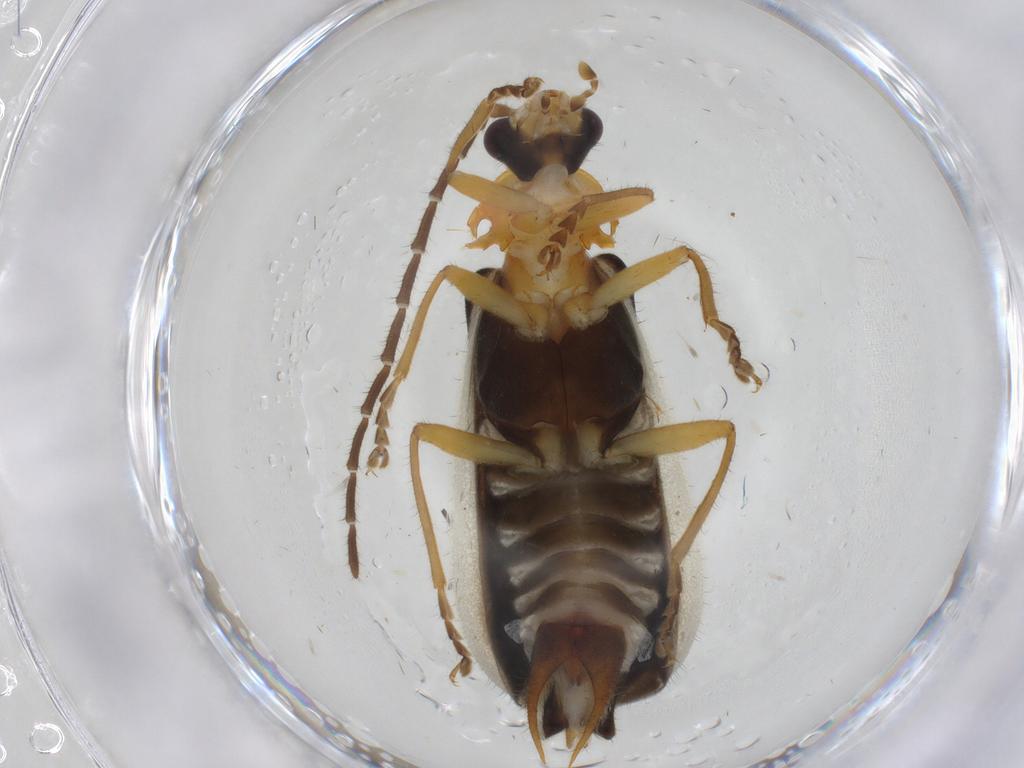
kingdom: Animalia
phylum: Arthropoda
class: Insecta
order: Coleoptera
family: Cantharidae
